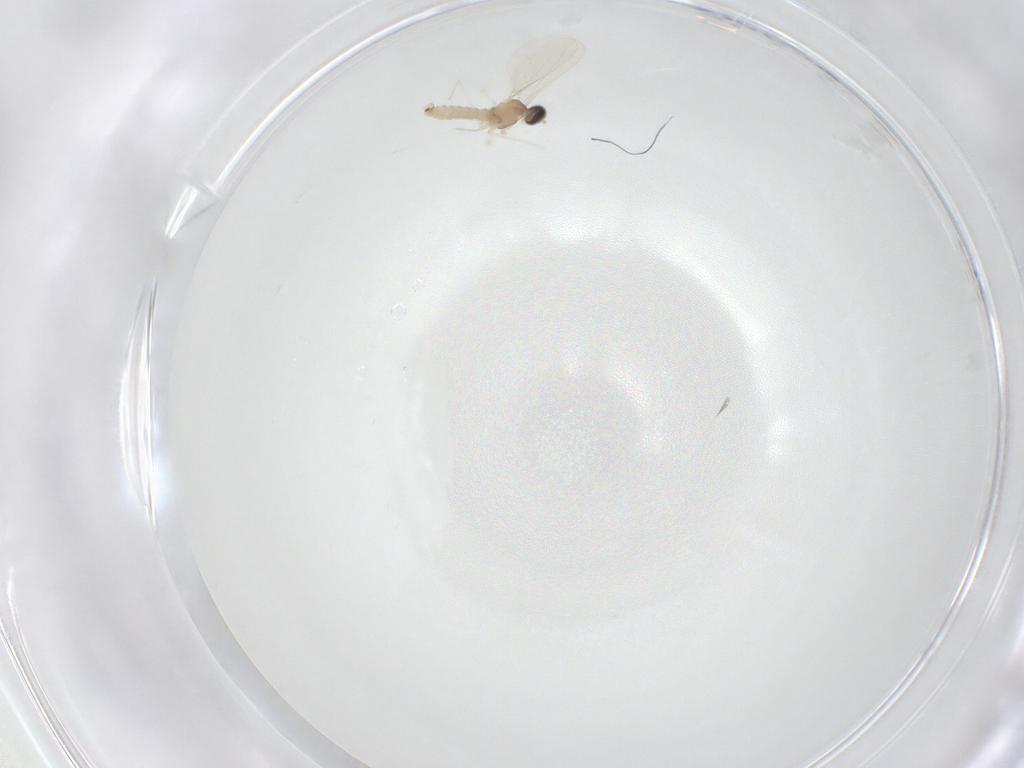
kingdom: Animalia
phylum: Arthropoda
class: Insecta
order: Diptera
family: Cecidomyiidae
